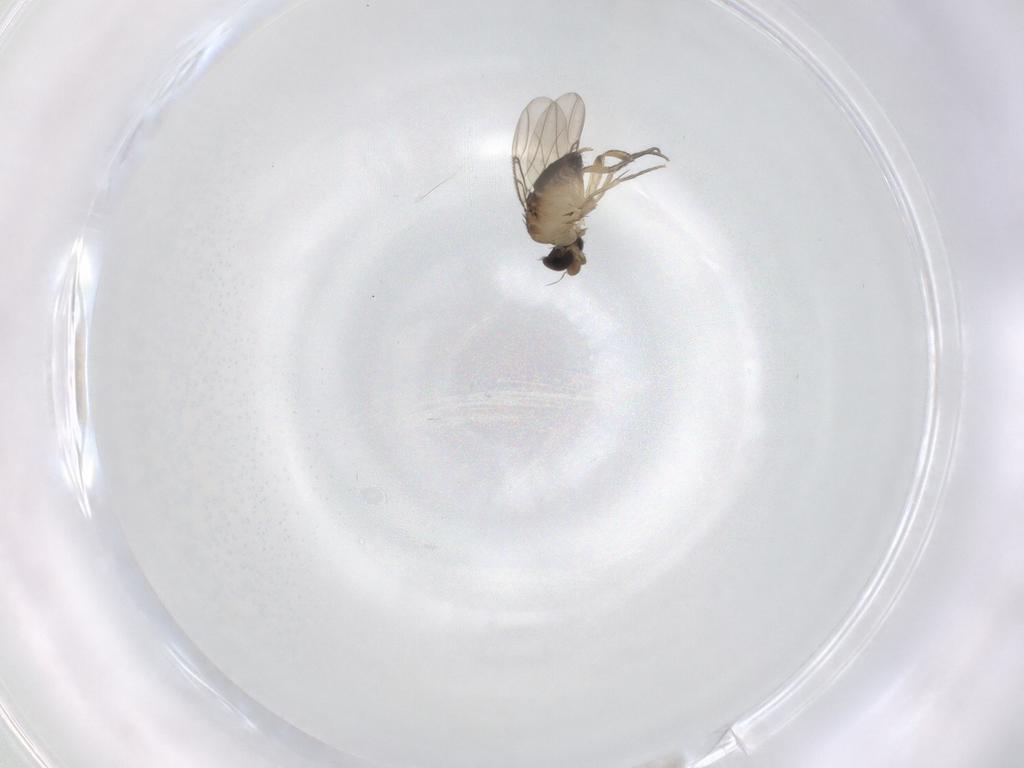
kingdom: Animalia
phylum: Arthropoda
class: Insecta
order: Diptera
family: Phoridae
